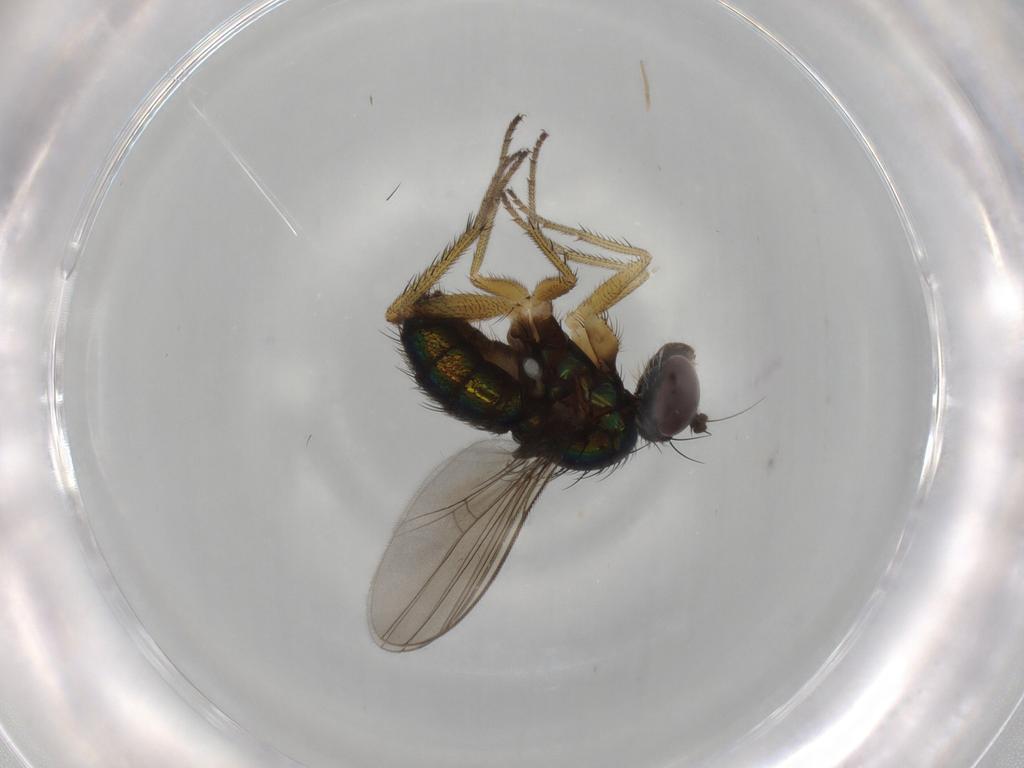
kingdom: Animalia
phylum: Arthropoda
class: Insecta
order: Diptera
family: Dolichopodidae
